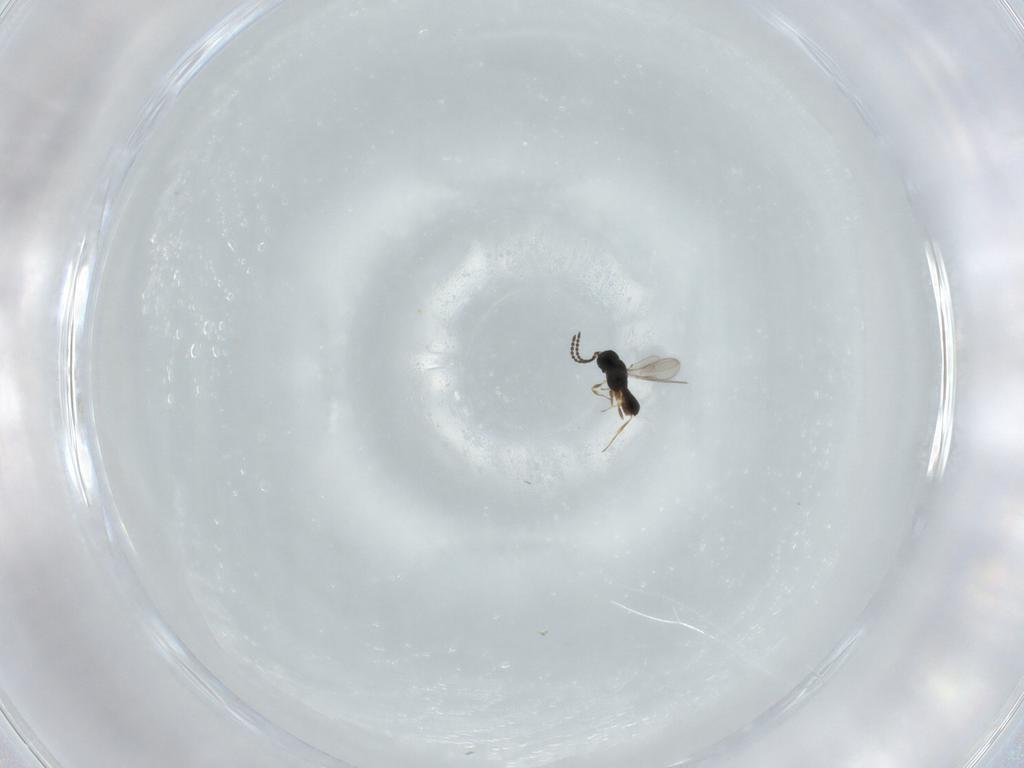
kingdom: Animalia
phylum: Arthropoda
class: Insecta
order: Hymenoptera
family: Scelionidae
